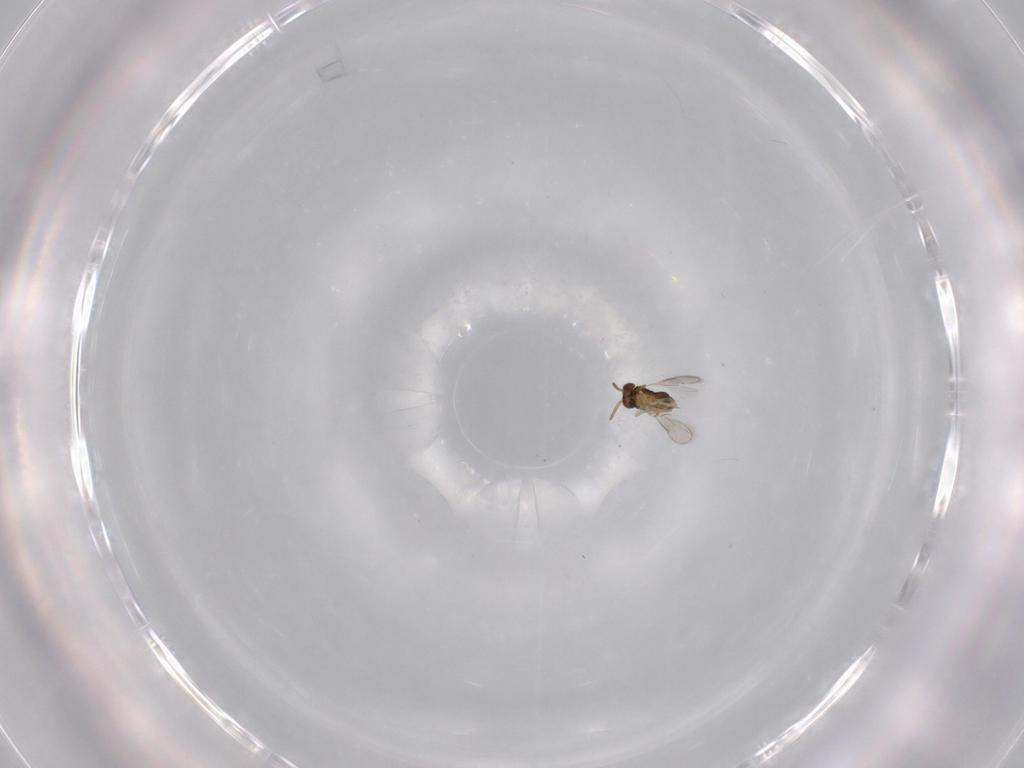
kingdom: Animalia
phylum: Arthropoda
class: Insecta
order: Hymenoptera
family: Aphelinidae
